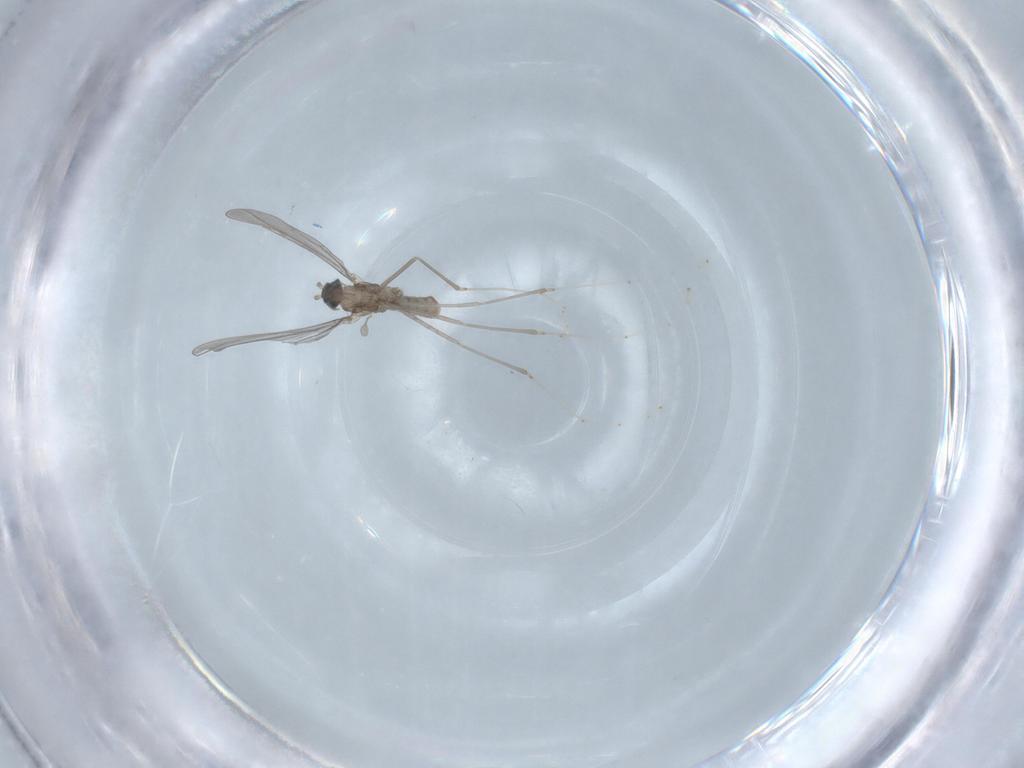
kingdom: Animalia
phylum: Arthropoda
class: Insecta
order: Diptera
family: Cecidomyiidae
